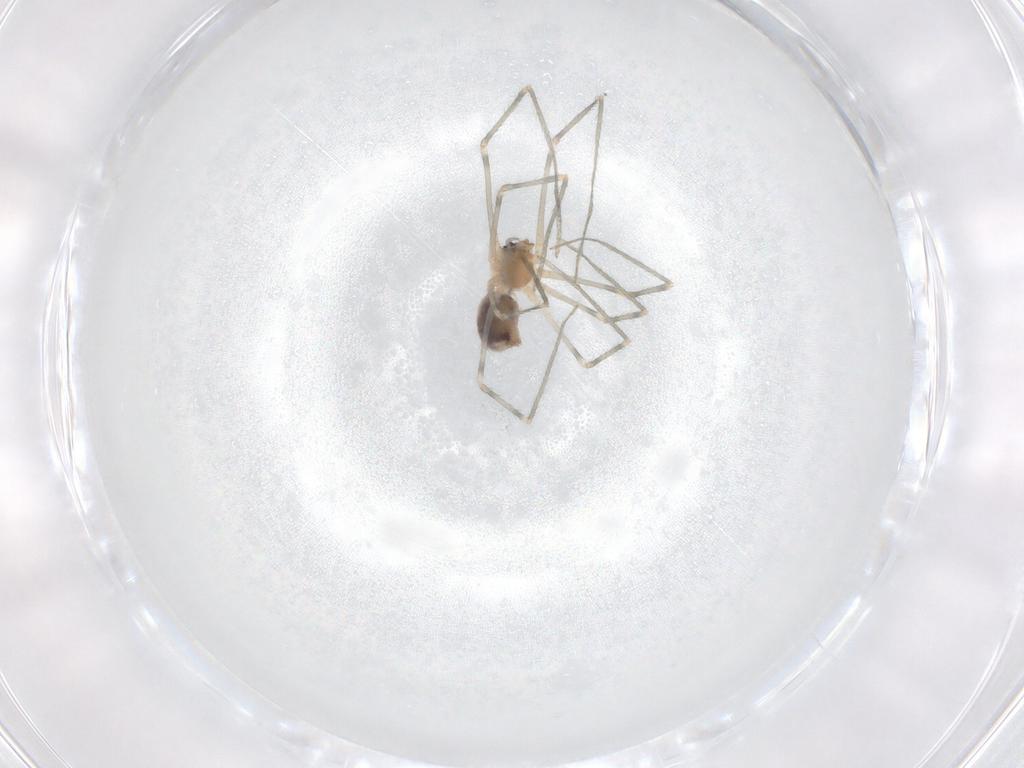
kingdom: Animalia
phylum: Arthropoda
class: Arachnida
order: Araneae
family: Pholcidae
